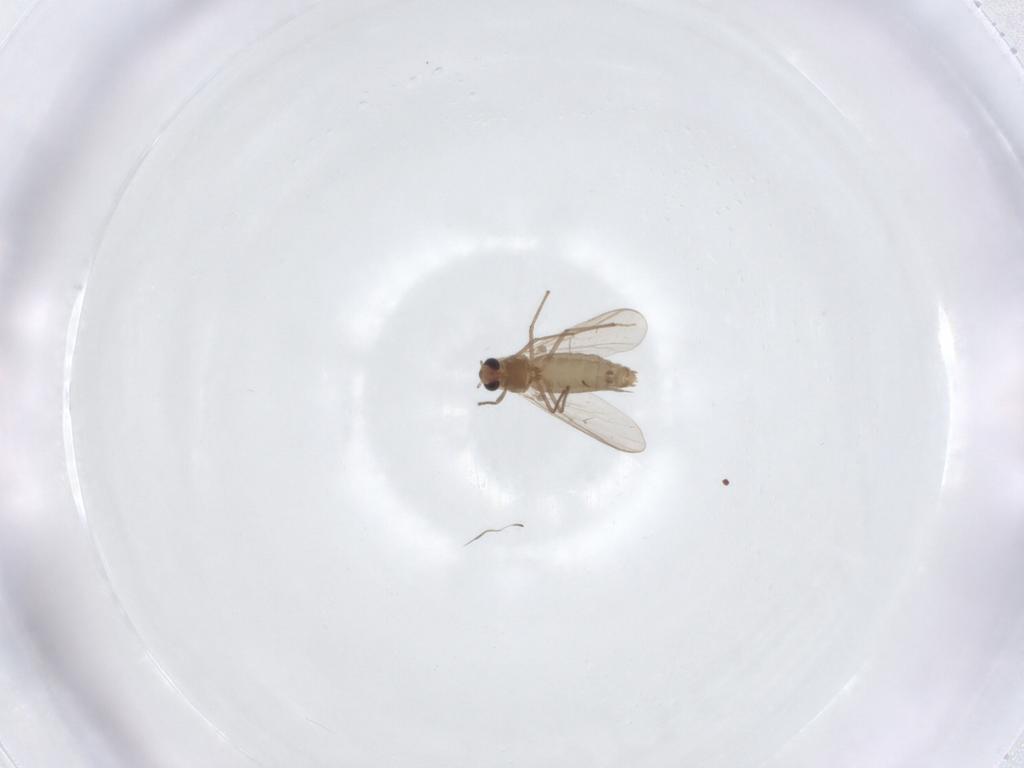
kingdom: Animalia
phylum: Arthropoda
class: Insecta
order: Diptera
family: Chironomidae
